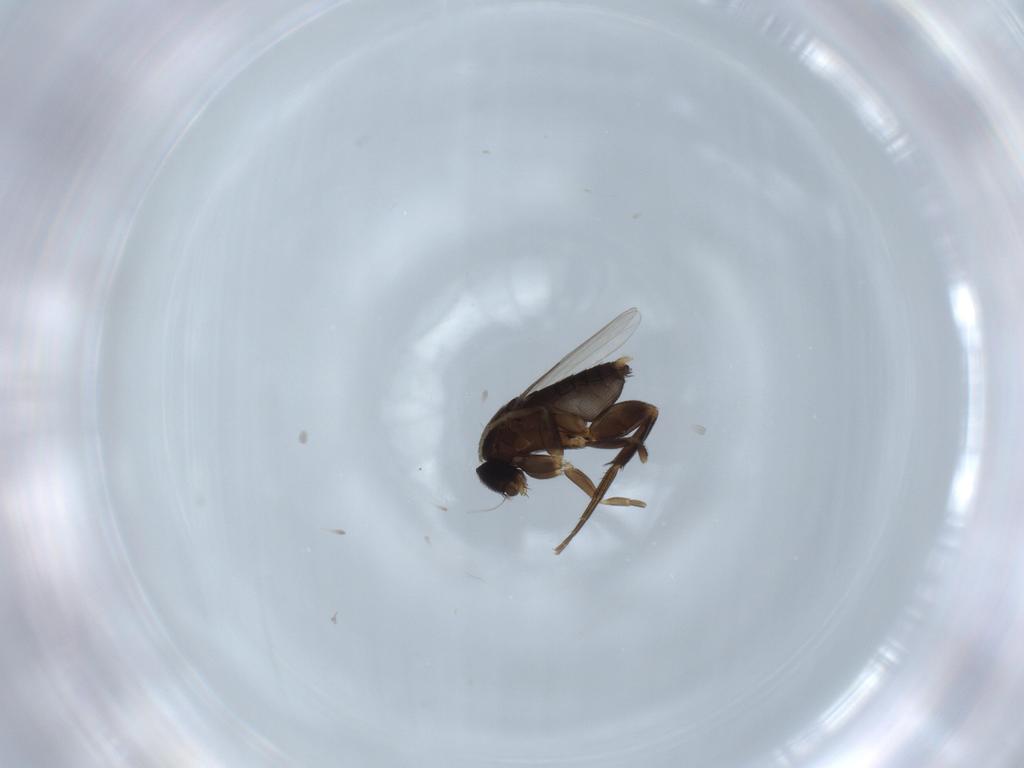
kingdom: Animalia
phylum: Arthropoda
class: Insecta
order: Diptera
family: Phoridae
